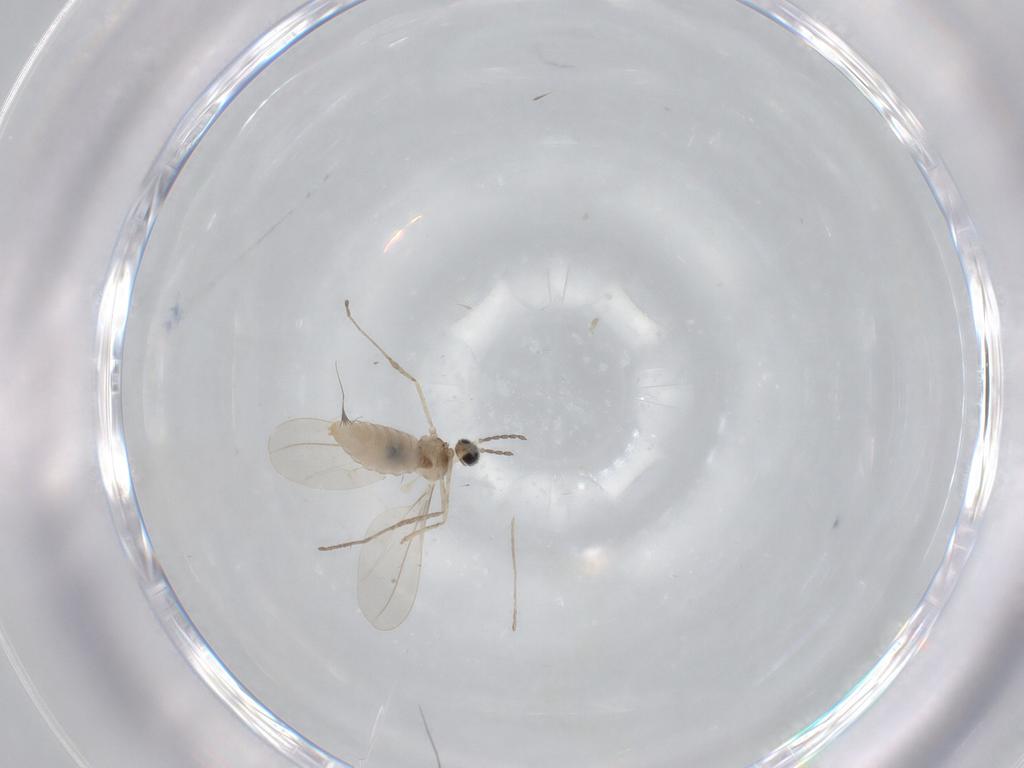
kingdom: Animalia
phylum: Arthropoda
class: Insecta
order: Diptera
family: Cecidomyiidae
